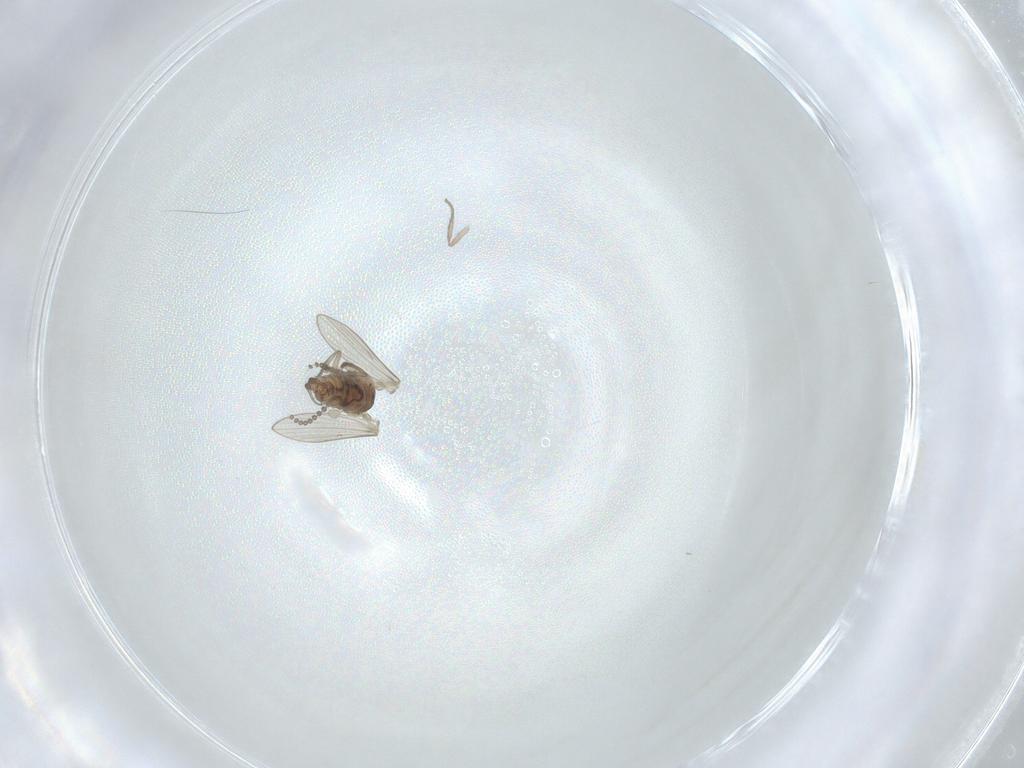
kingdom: Animalia
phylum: Arthropoda
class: Insecta
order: Diptera
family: Psychodidae
